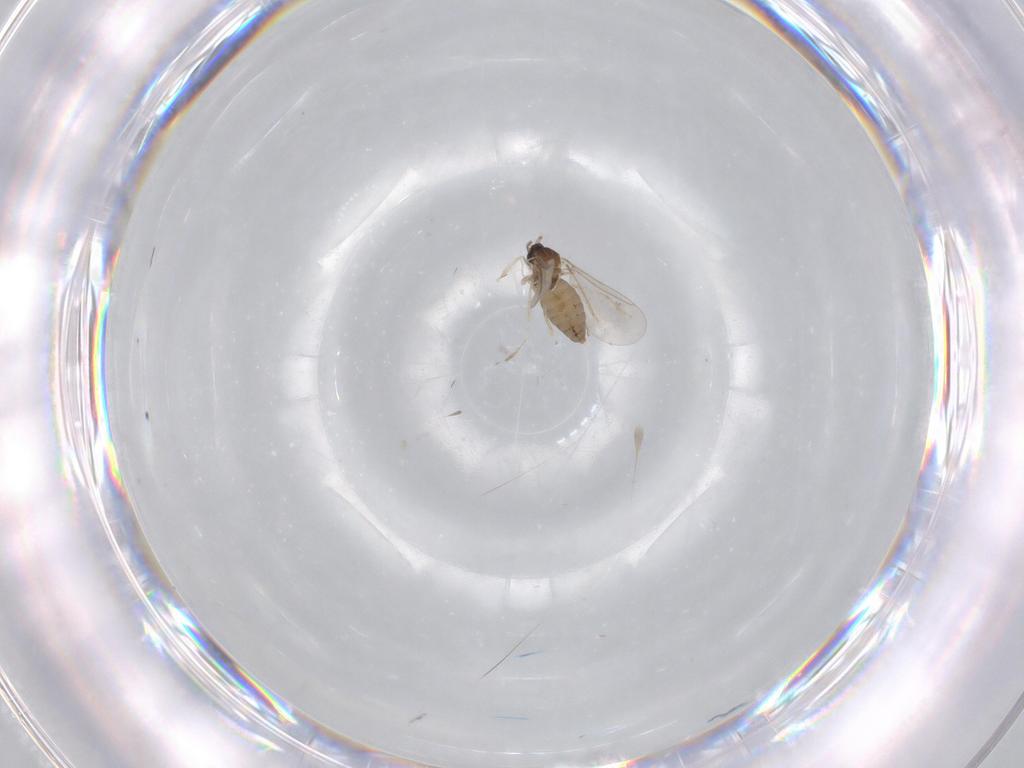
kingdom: Animalia
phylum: Arthropoda
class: Insecta
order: Diptera
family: Cecidomyiidae
